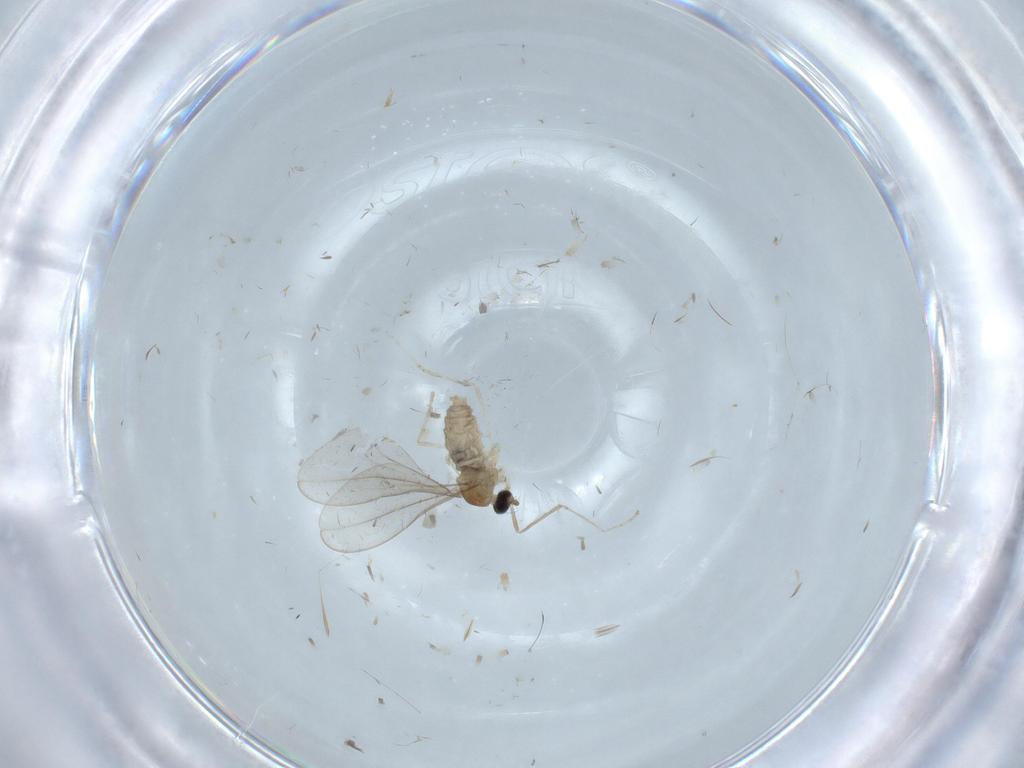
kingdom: Animalia
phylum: Arthropoda
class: Insecta
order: Diptera
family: Cecidomyiidae
